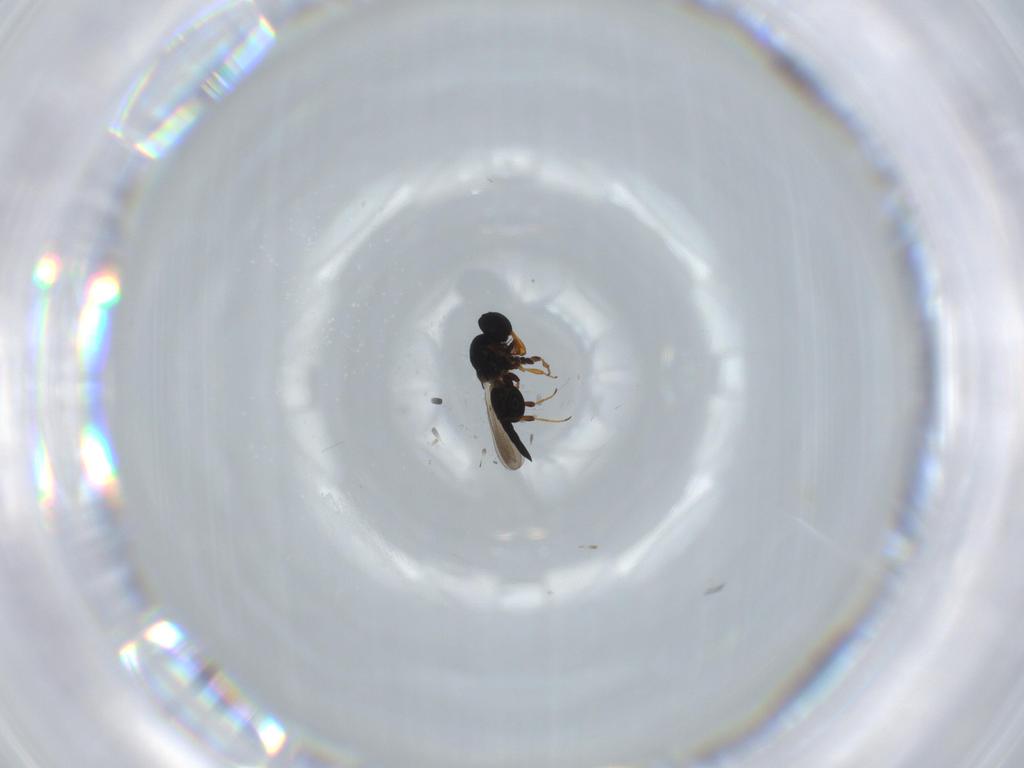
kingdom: Animalia
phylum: Arthropoda
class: Insecta
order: Hymenoptera
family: Platygastridae
